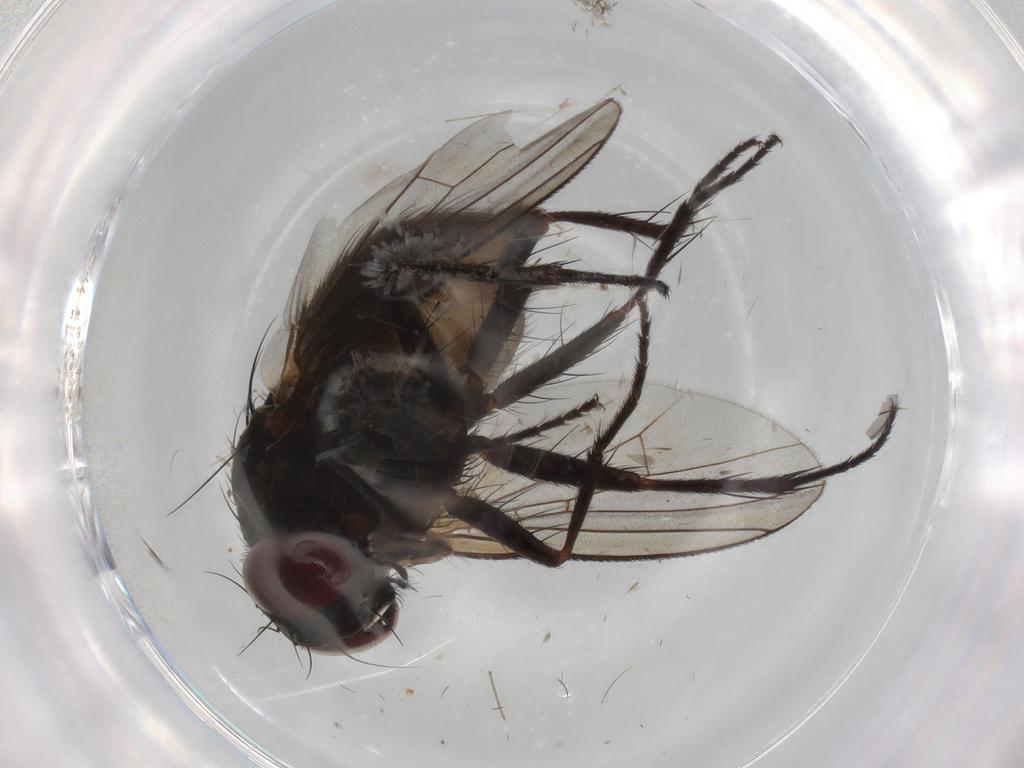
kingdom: Animalia
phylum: Arthropoda
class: Insecta
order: Diptera
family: Muscidae
